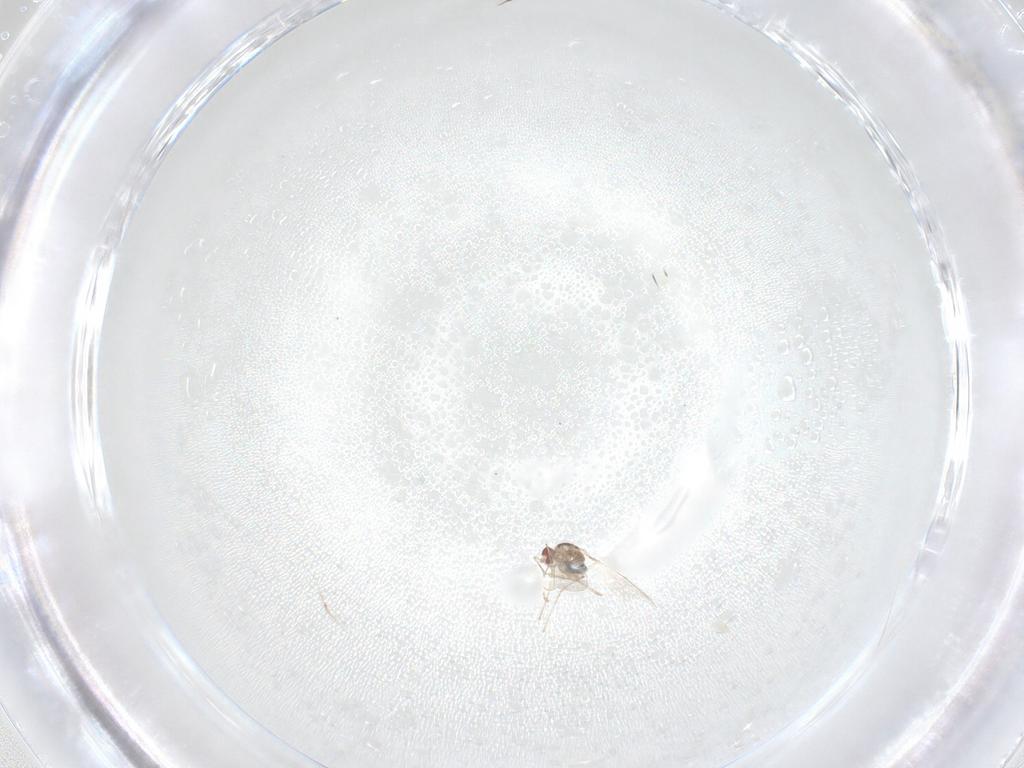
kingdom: Animalia
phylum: Arthropoda
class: Insecta
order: Diptera
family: Cecidomyiidae
